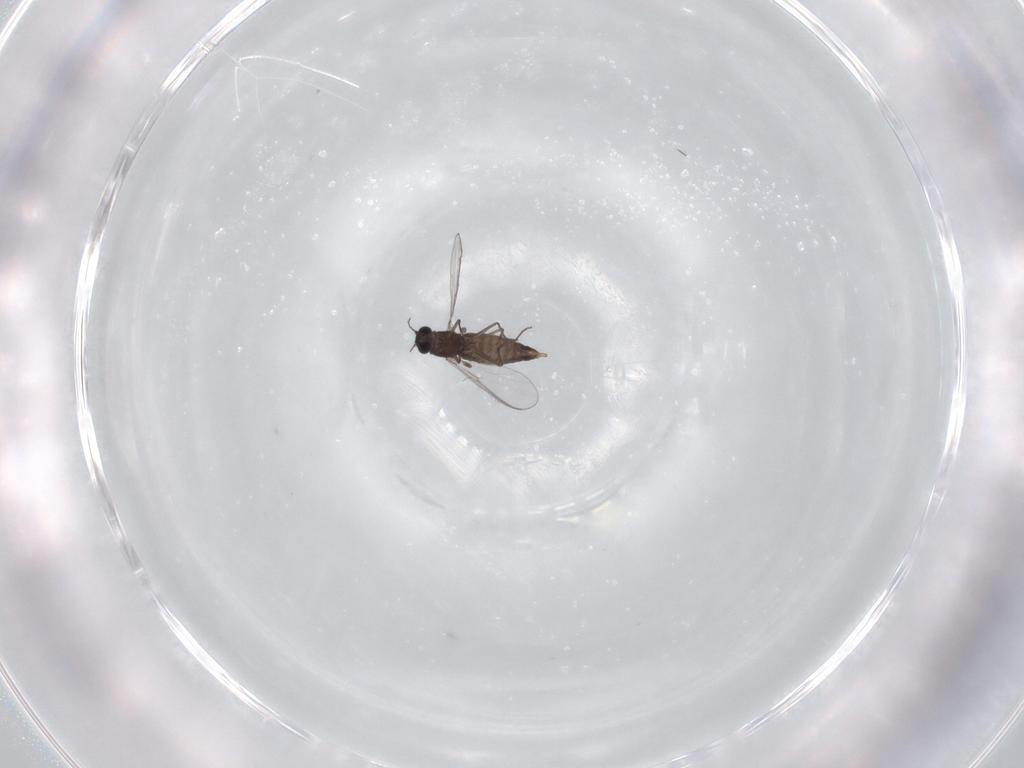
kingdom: Animalia
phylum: Arthropoda
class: Insecta
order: Diptera
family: Chironomidae
